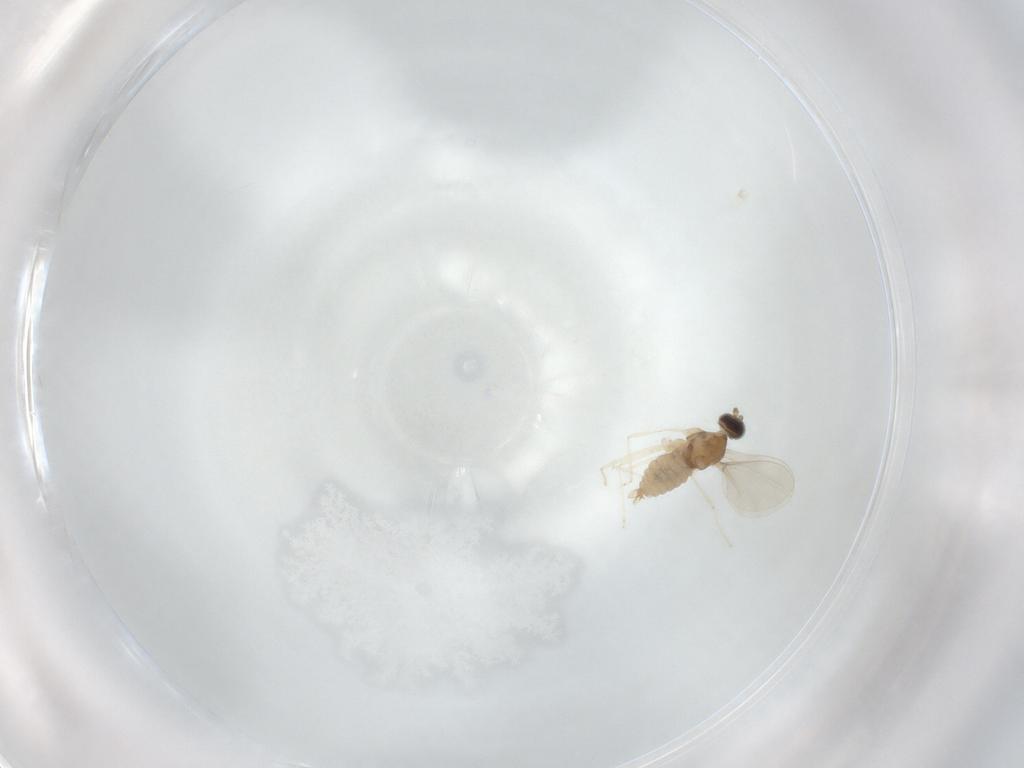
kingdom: Animalia
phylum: Arthropoda
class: Insecta
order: Diptera
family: Cecidomyiidae
